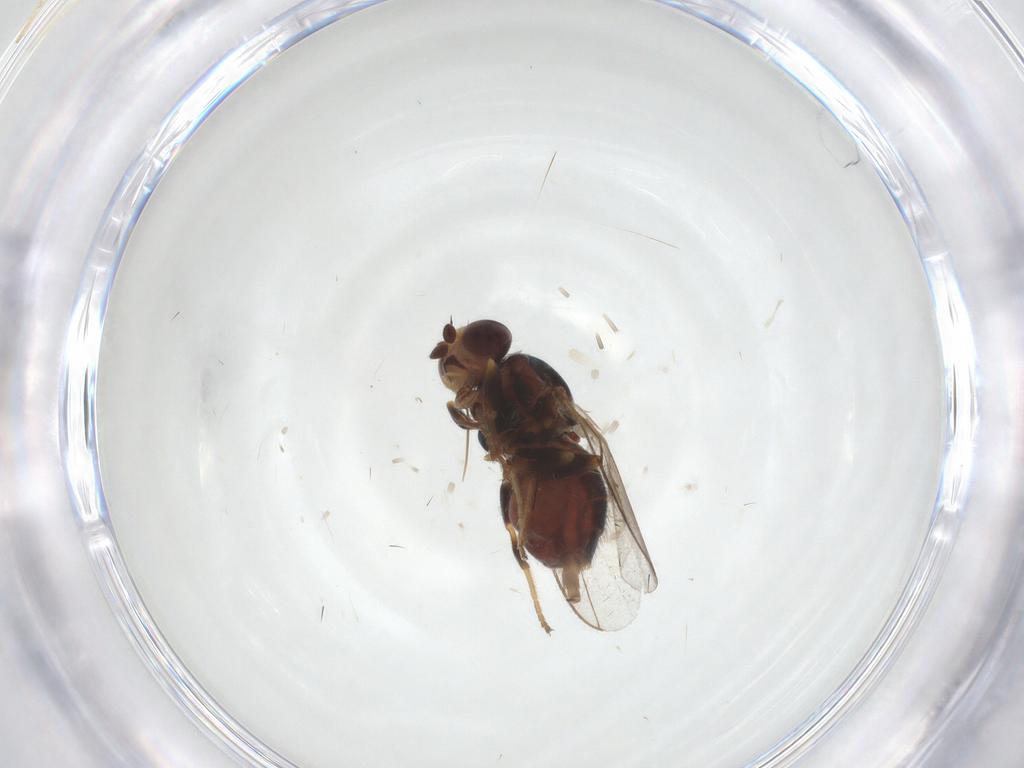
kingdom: Animalia
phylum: Arthropoda
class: Insecta
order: Diptera
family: Chloropidae
